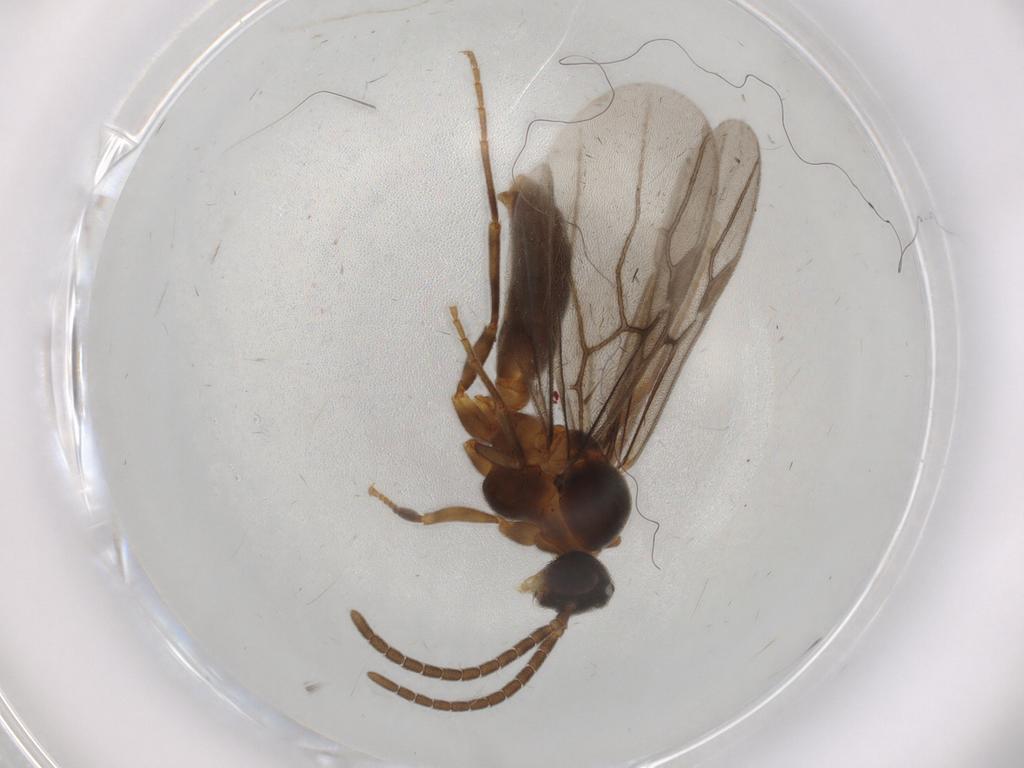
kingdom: Animalia
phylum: Arthropoda
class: Insecta
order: Hymenoptera
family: Formicidae
